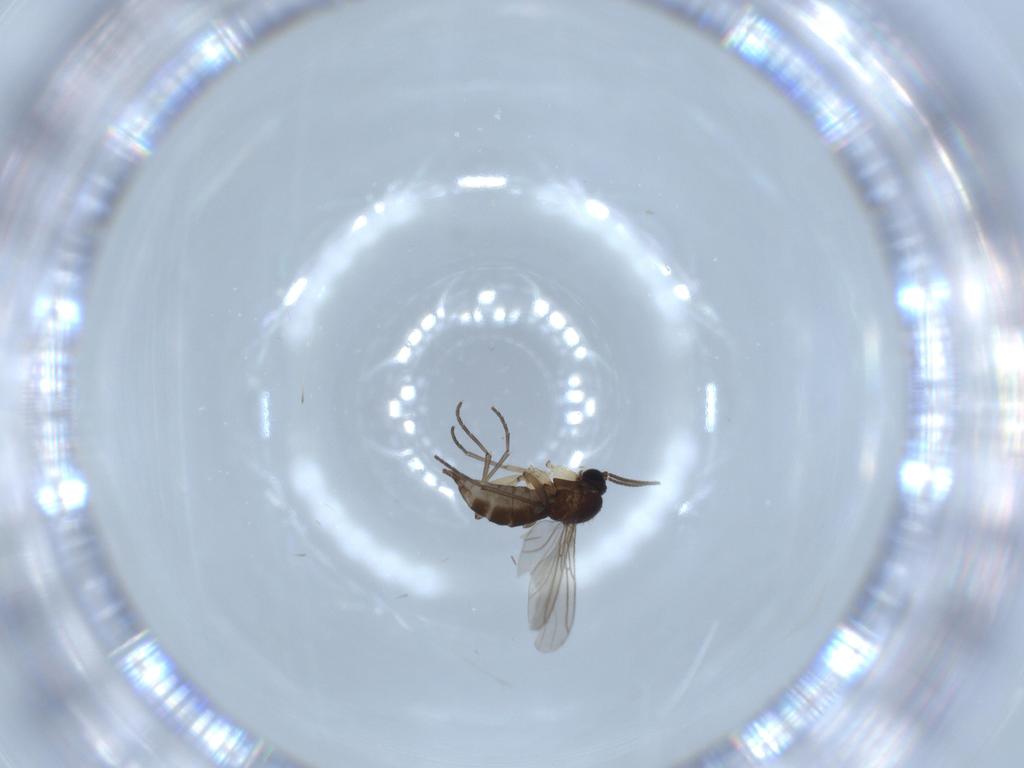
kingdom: Animalia
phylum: Arthropoda
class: Insecta
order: Diptera
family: Sciaridae
